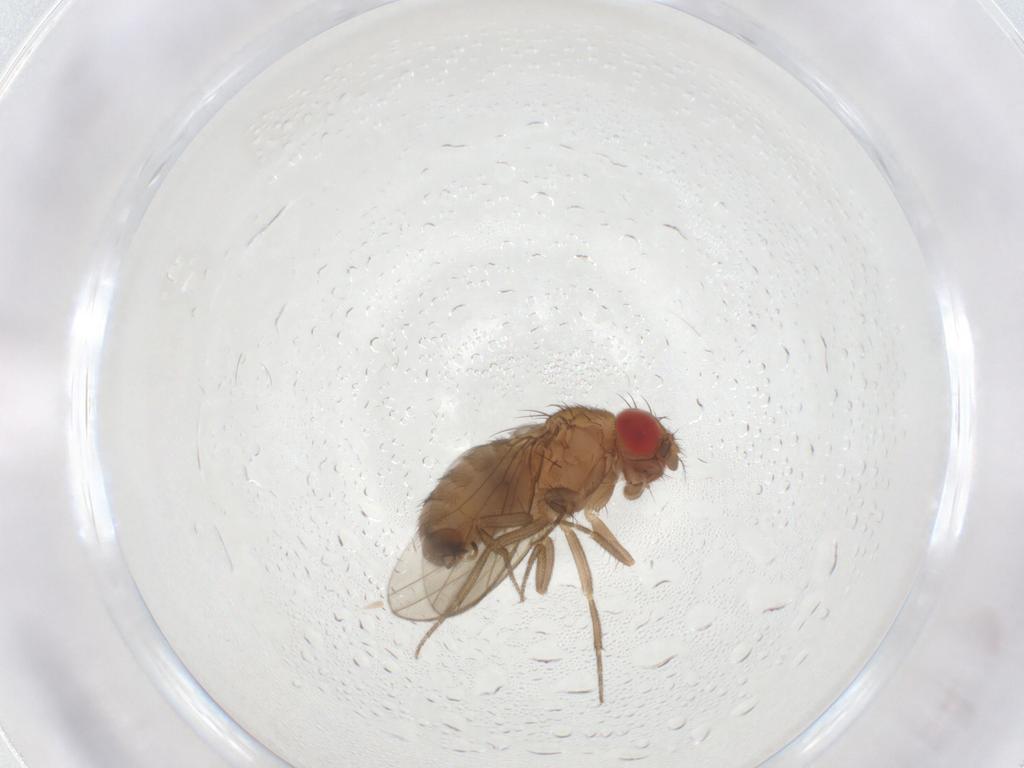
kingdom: Animalia
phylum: Arthropoda
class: Insecta
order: Diptera
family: Drosophilidae
